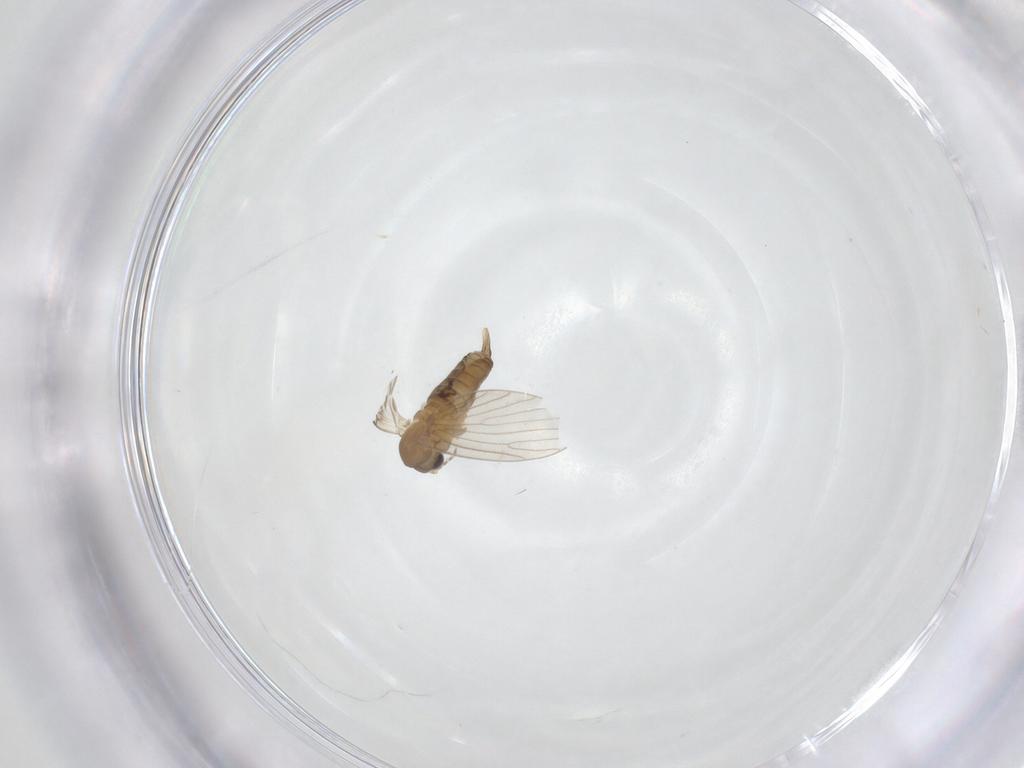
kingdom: Animalia
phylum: Arthropoda
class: Insecta
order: Diptera
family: Psychodidae
